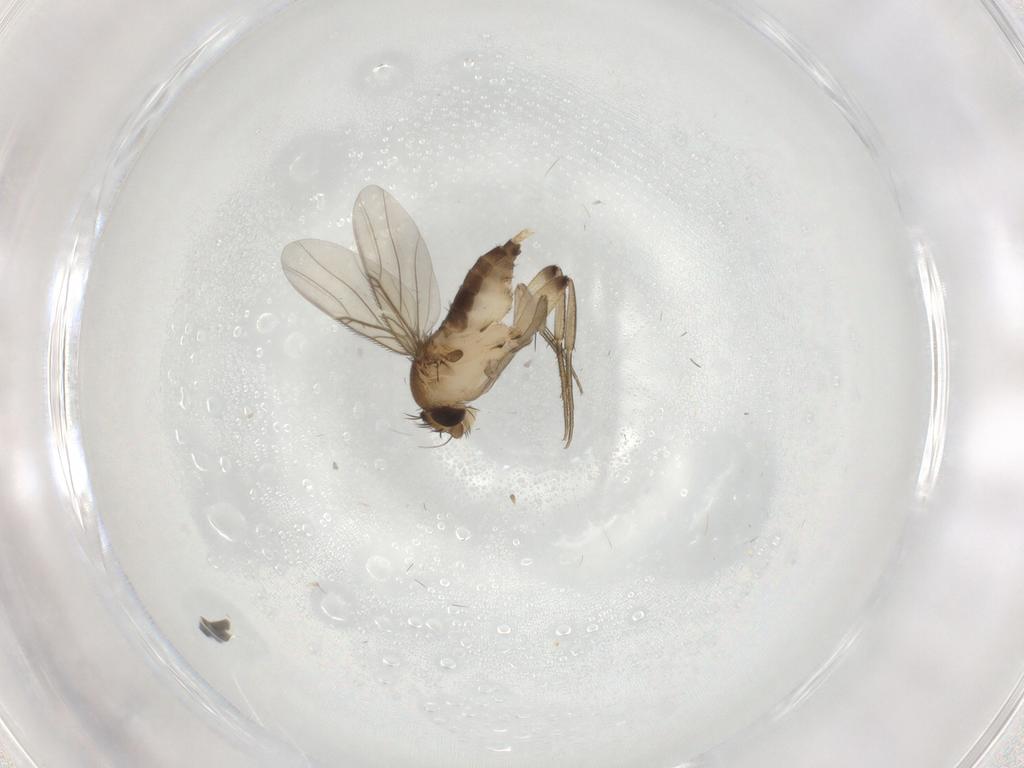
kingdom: Animalia
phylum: Arthropoda
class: Insecta
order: Diptera
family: Phoridae
